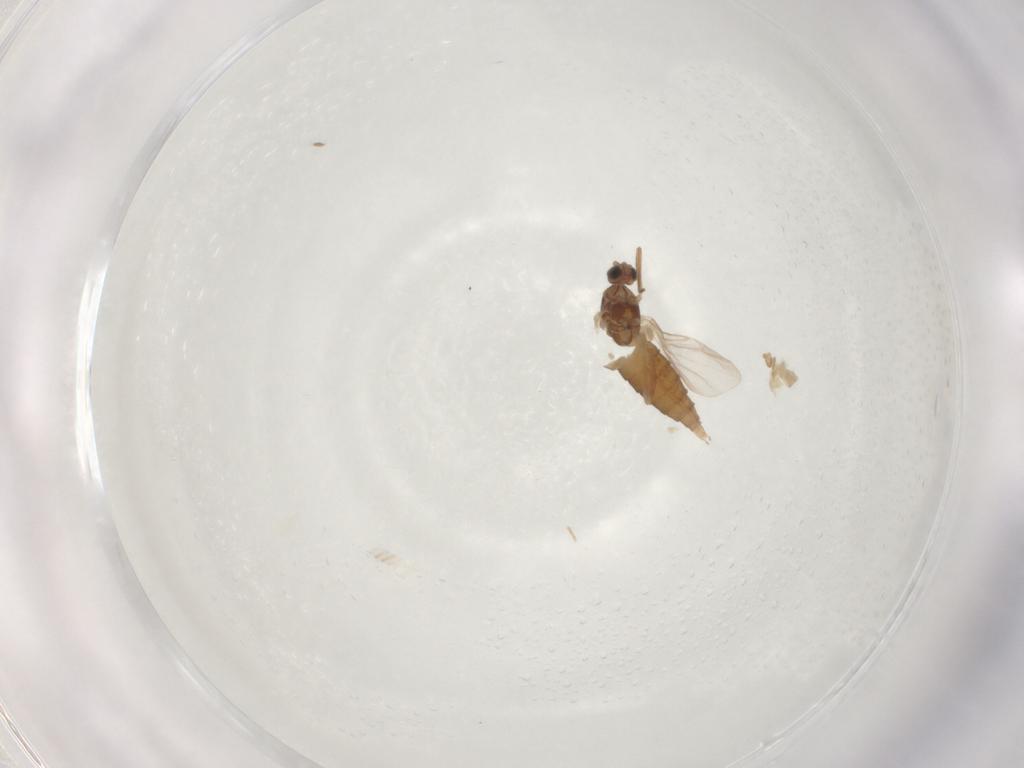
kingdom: Animalia
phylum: Arthropoda
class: Insecta
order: Diptera
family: Cecidomyiidae
